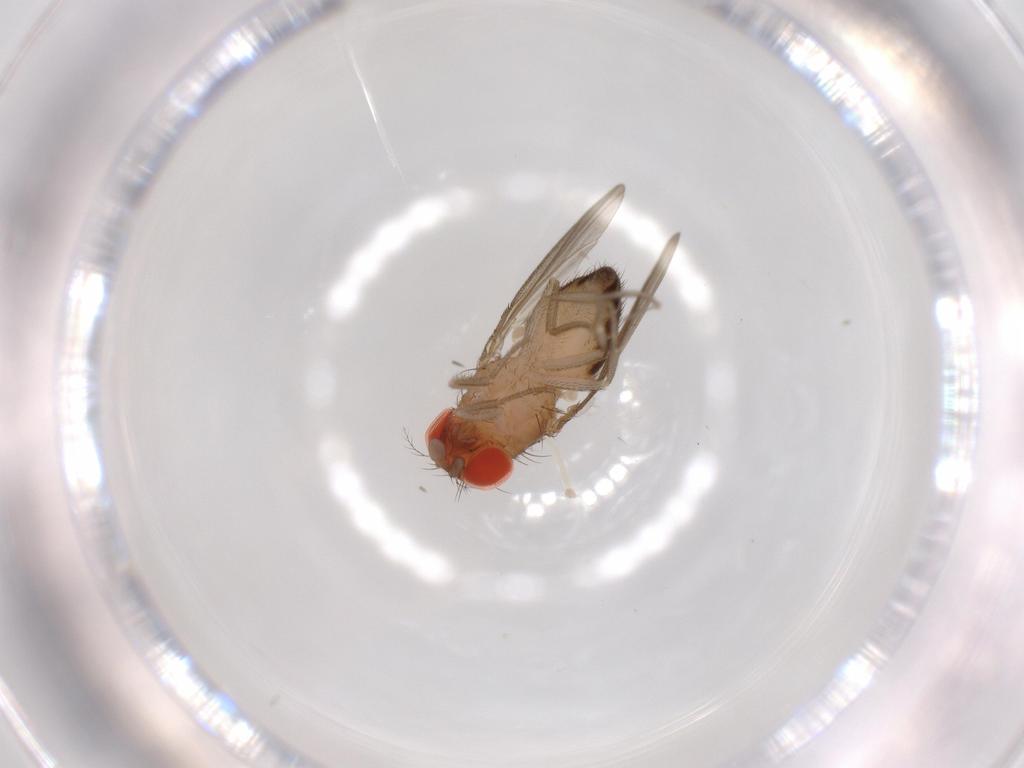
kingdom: Animalia
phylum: Arthropoda
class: Insecta
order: Diptera
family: Drosophilidae
